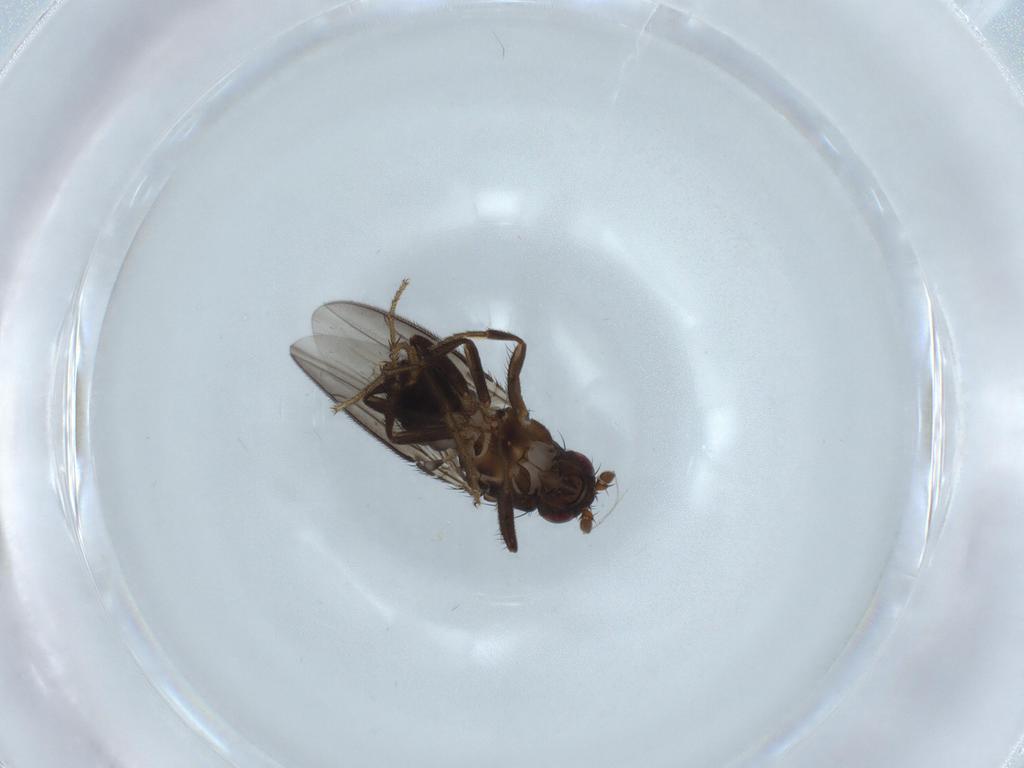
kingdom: Animalia
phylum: Arthropoda
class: Insecta
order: Diptera
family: Sphaeroceridae
